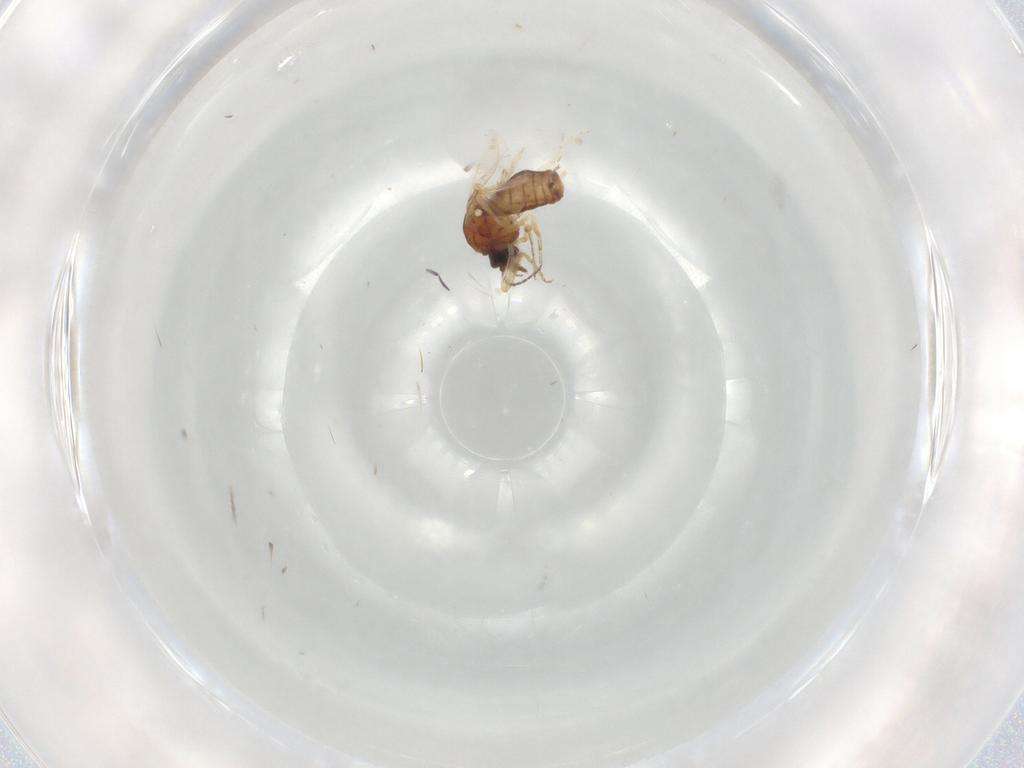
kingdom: Animalia
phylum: Arthropoda
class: Insecta
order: Diptera
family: Ceratopogonidae
